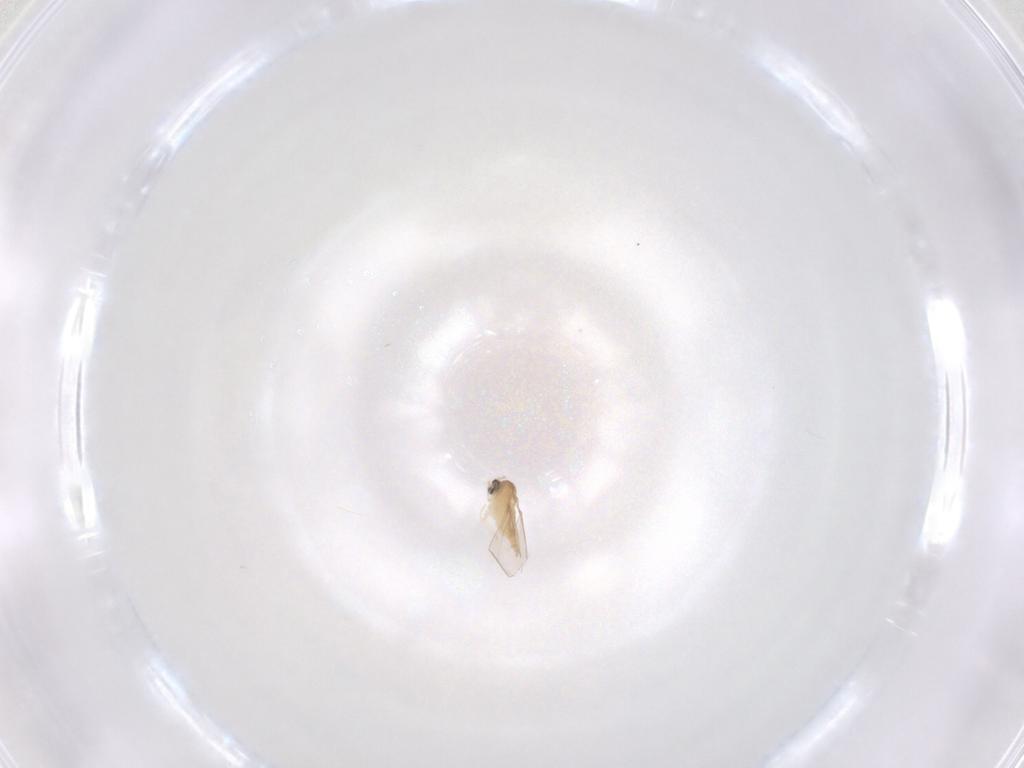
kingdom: Animalia
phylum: Arthropoda
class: Insecta
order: Diptera
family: Cecidomyiidae
